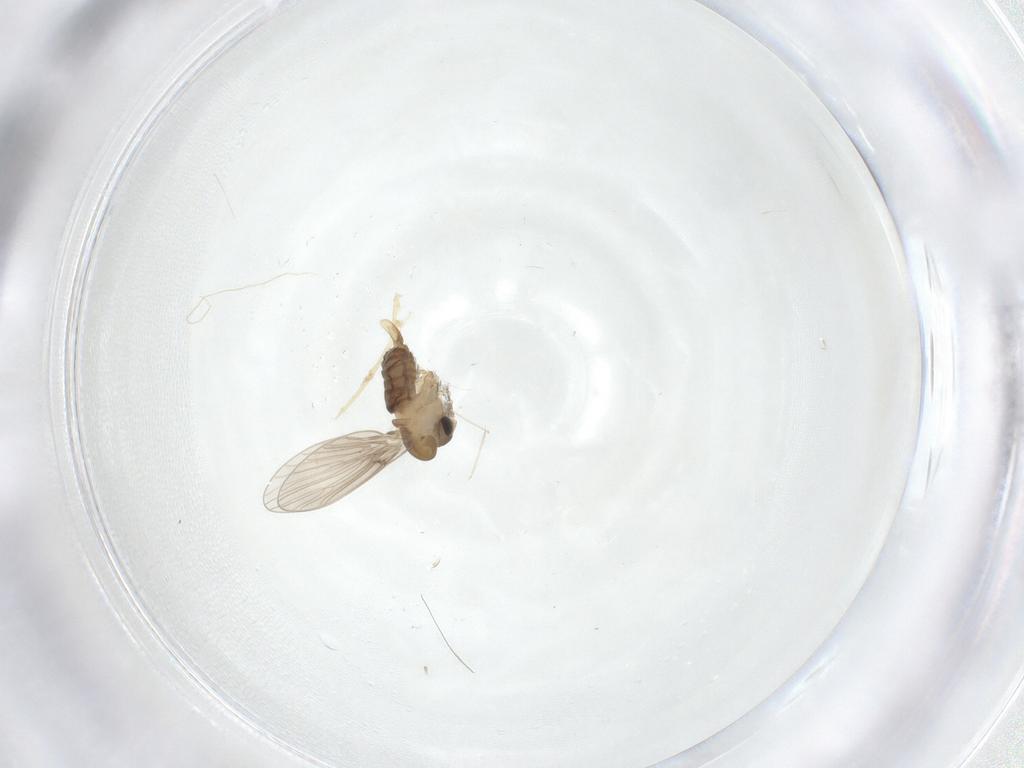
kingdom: Animalia
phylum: Arthropoda
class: Insecta
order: Diptera
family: Psychodidae
